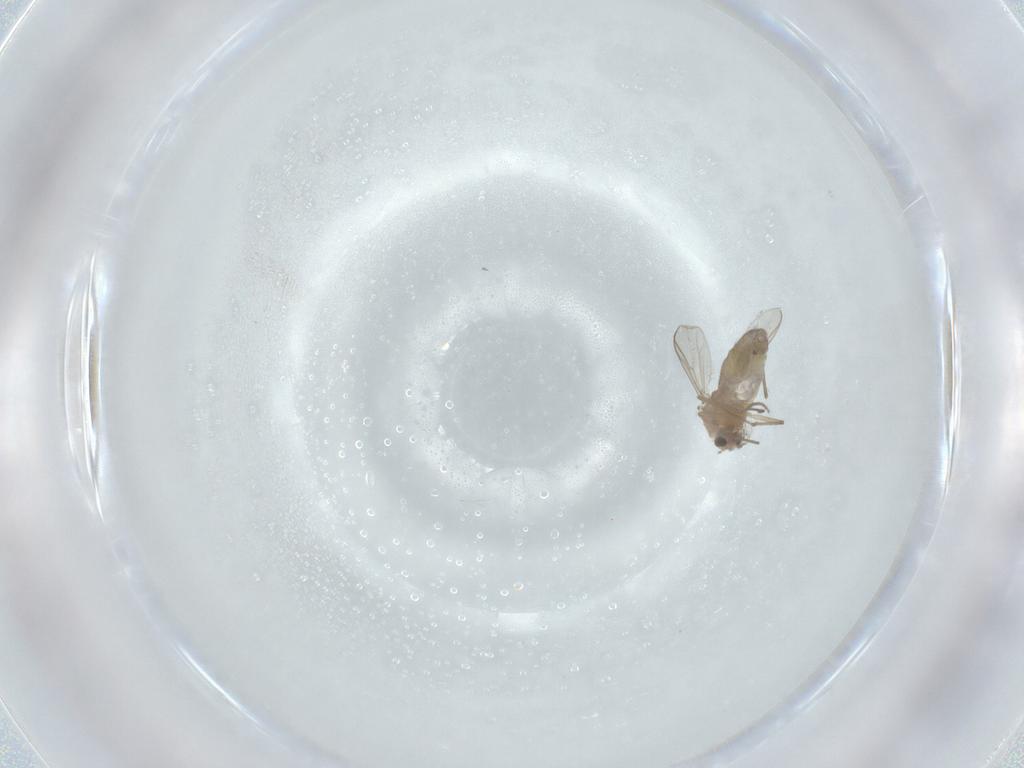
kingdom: Animalia
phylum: Arthropoda
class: Insecta
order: Diptera
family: Chironomidae
